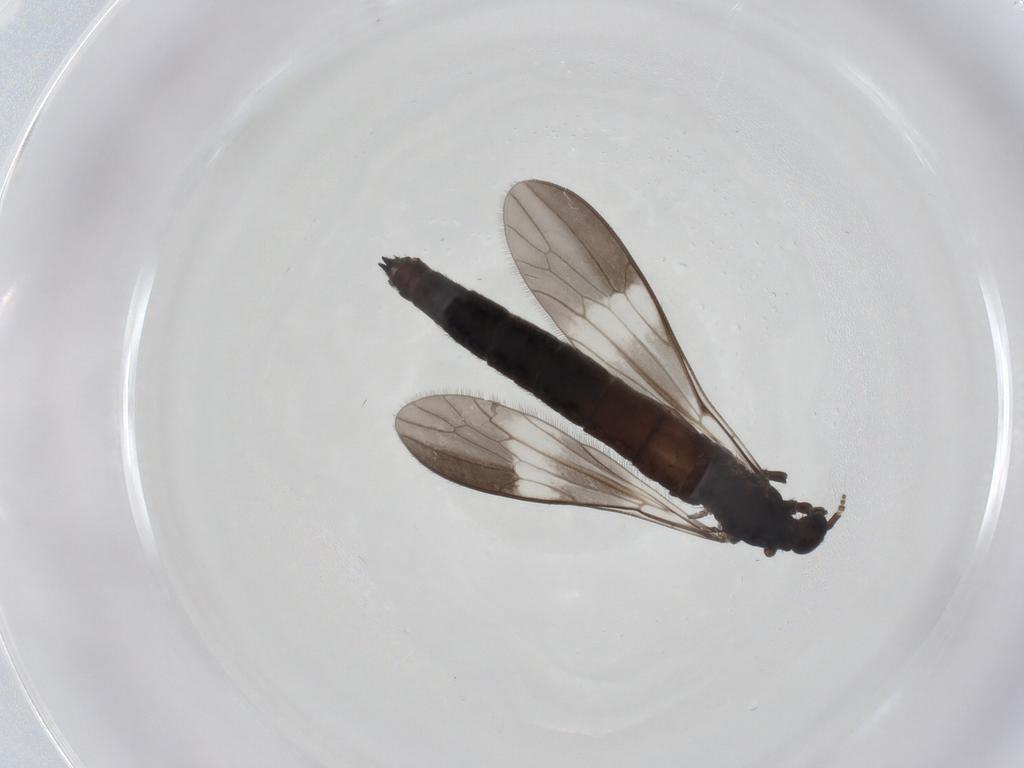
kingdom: Animalia
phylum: Arthropoda
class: Insecta
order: Diptera
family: Limoniidae
